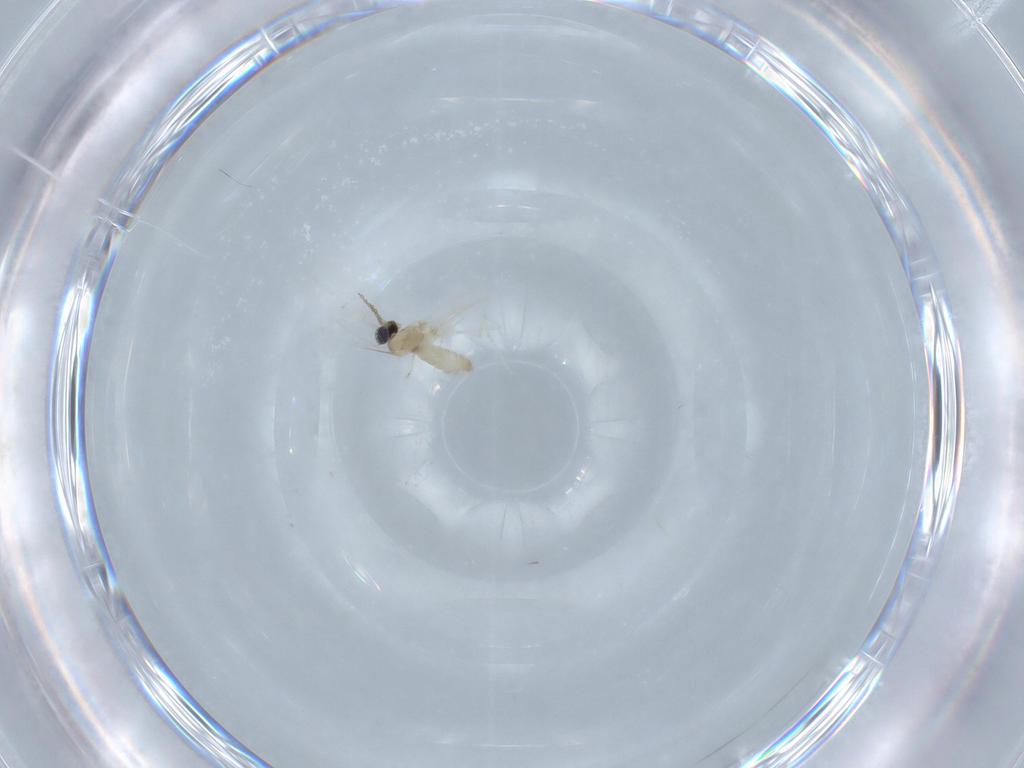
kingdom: Animalia
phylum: Arthropoda
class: Insecta
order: Diptera
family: Cecidomyiidae
